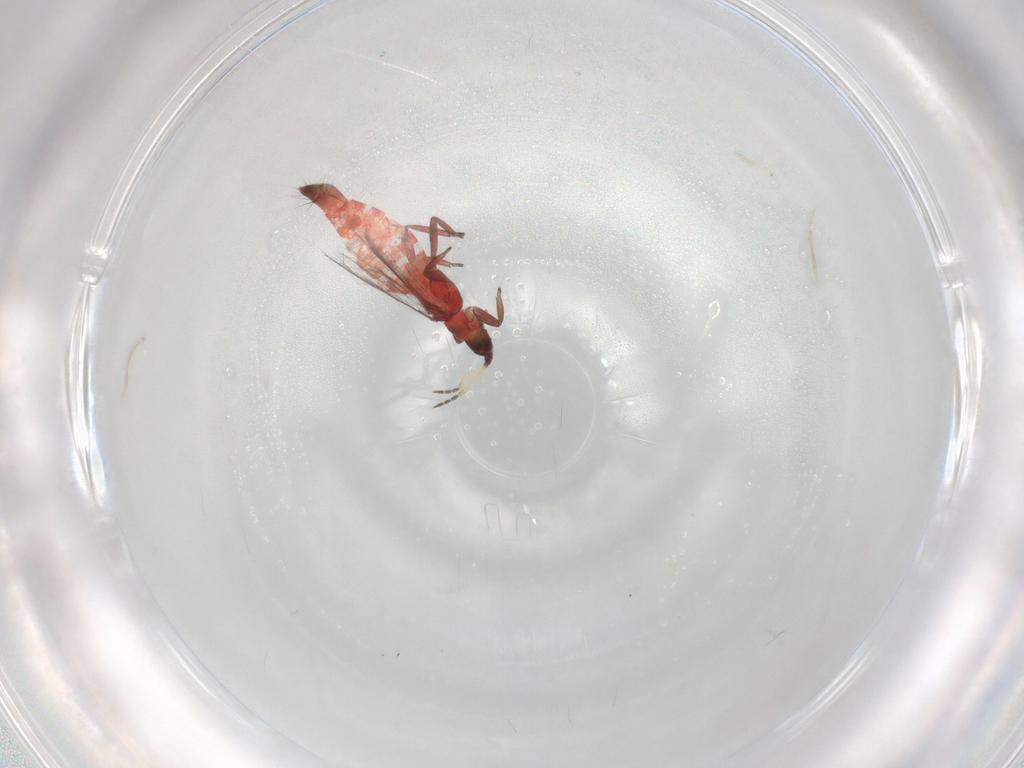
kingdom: Animalia
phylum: Arthropoda
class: Insecta
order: Thysanoptera
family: Aeolothripidae
